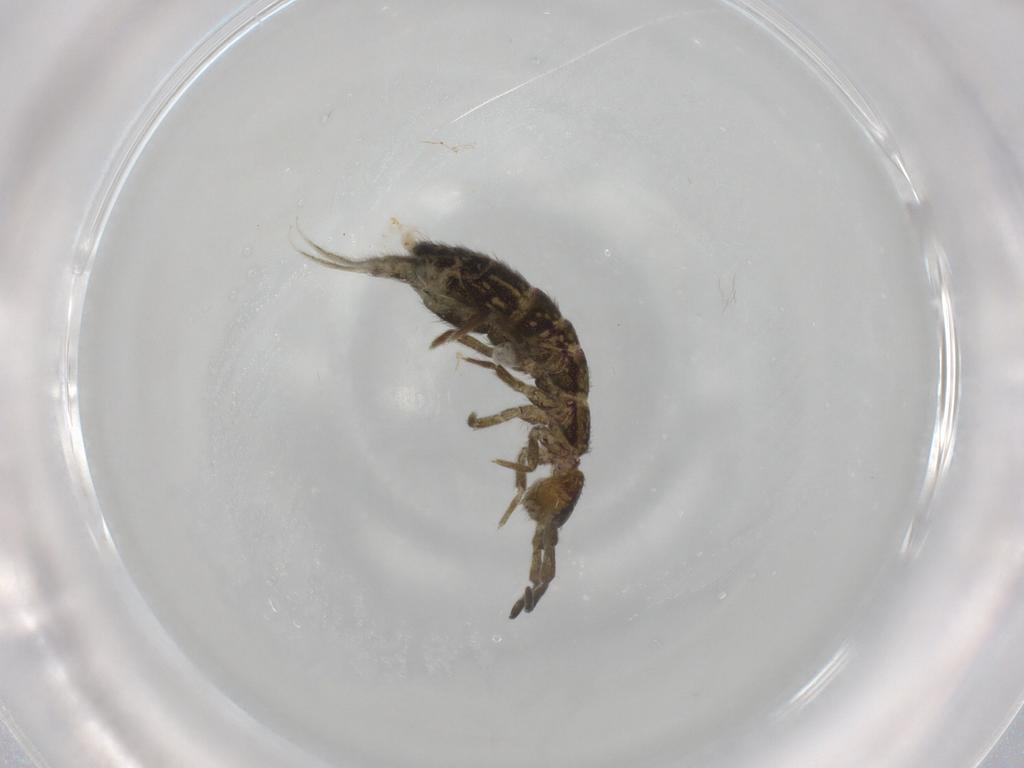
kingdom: Animalia
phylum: Arthropoda
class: Collembola
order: Entomobryomorpha
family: Isotomidae
